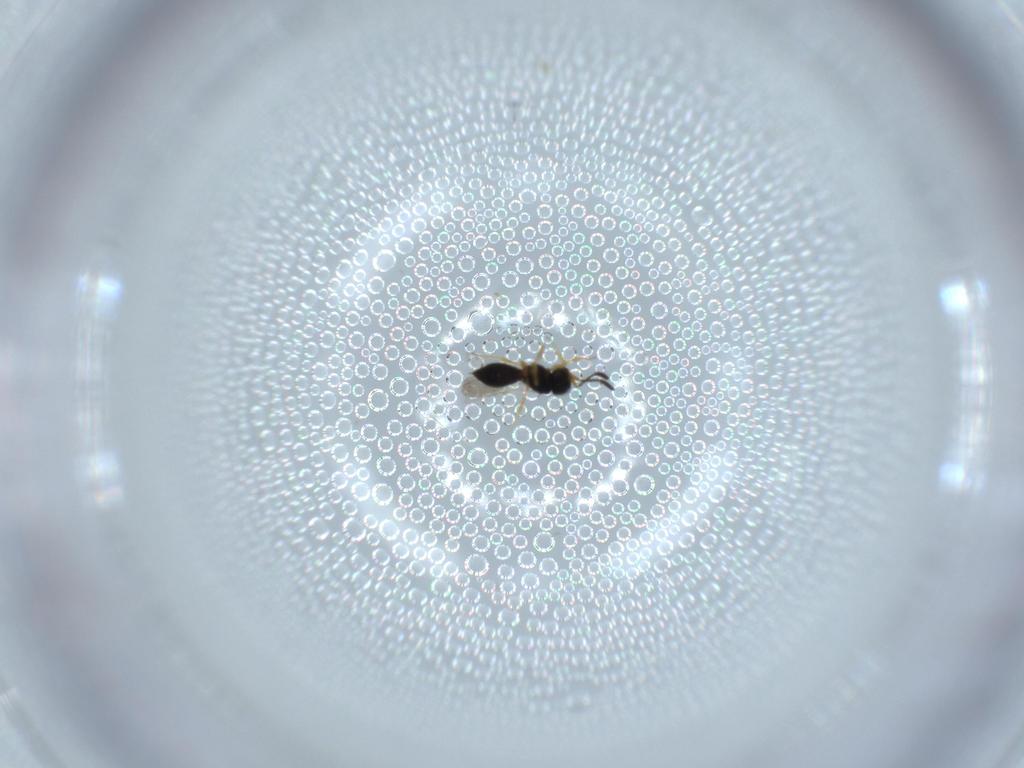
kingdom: Animalia
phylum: Arthropoda
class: Insecta
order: Hymenoptera
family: Scelionidae
